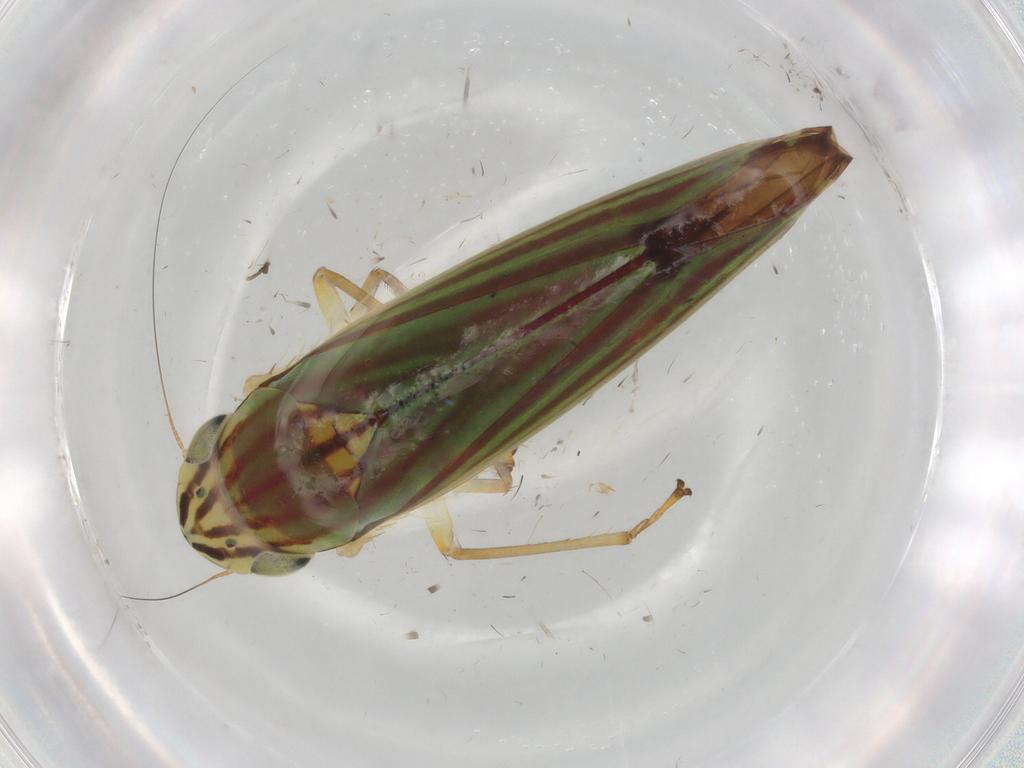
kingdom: Animalia
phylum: Arthropoda
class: Insecta
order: Hemiptera
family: Cicadellidae
